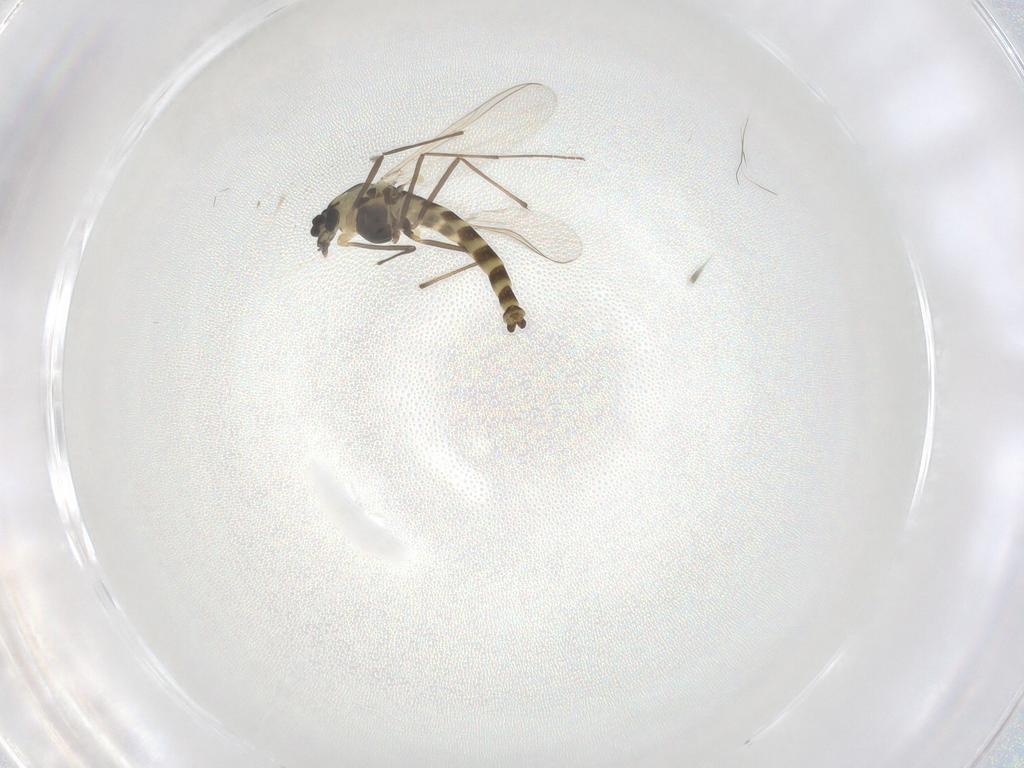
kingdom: Animalia
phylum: Arthropoda
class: Insecta
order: Diptera
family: Chironomidae
